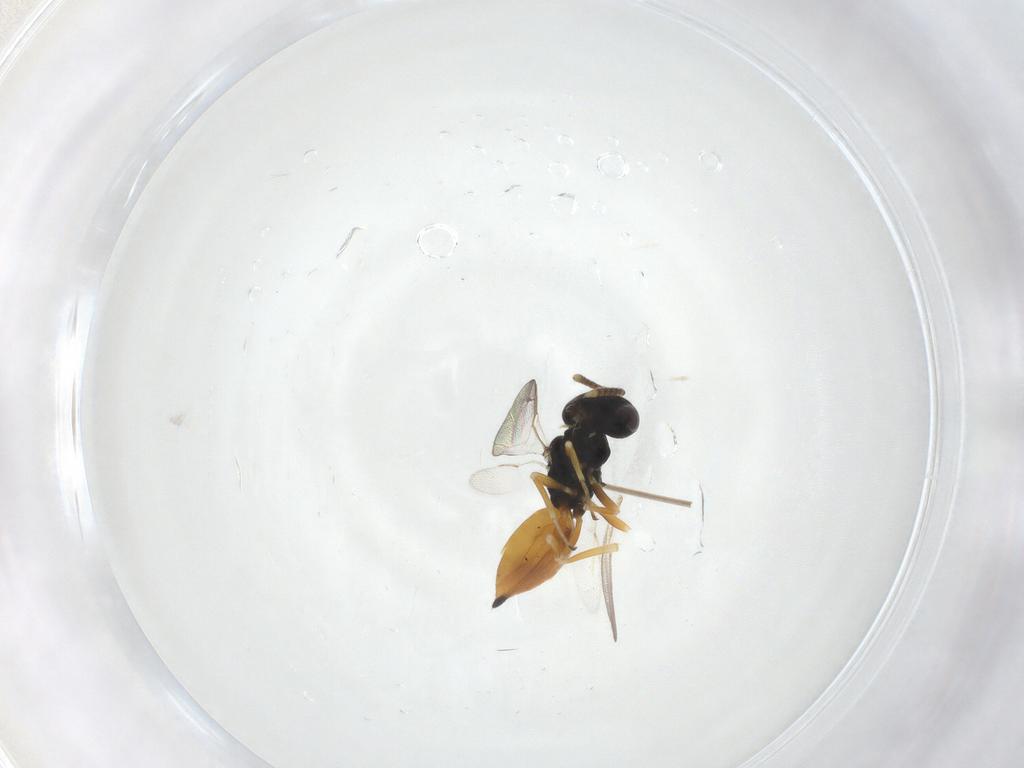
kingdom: Animalia
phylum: Arthropoda
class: Insecta
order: Hymenoptera
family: Pteromalidae
